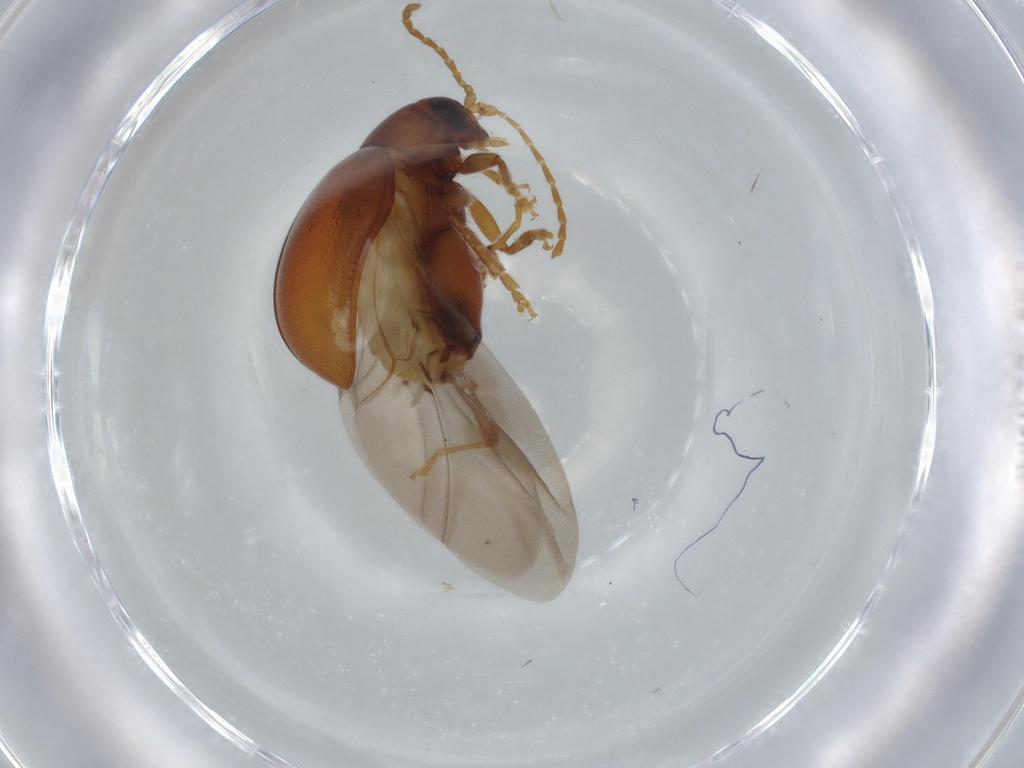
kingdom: Animalia
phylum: Arthropoda
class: Insecta
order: Coleoptera
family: Chrysomelidae
